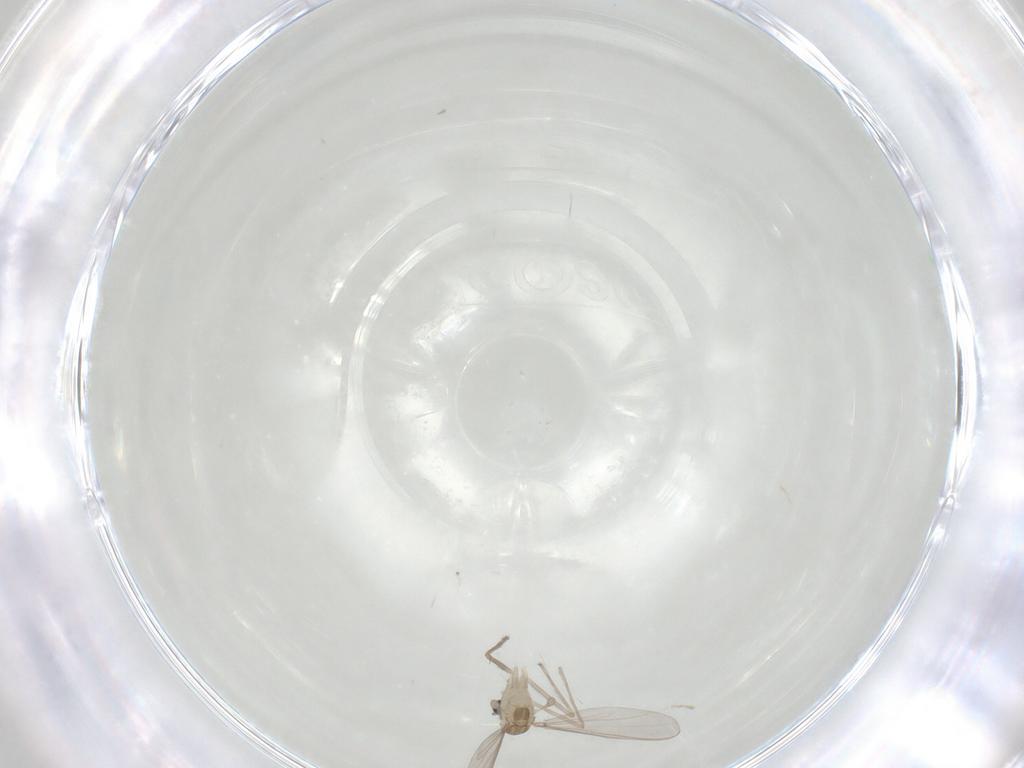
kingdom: Animalia
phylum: Arthropoda
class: Insecta
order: Diptera
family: Chironomidae
